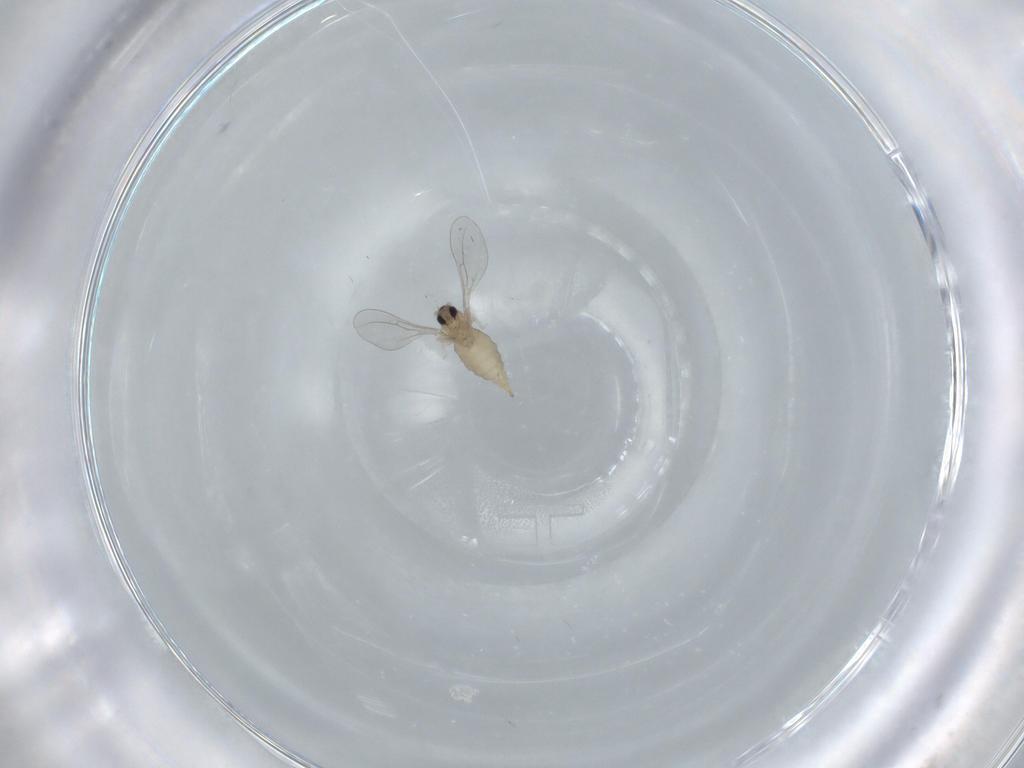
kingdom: Animalia
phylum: Arthropoda
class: Insecta
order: Diptera
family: Cecidomyiidae
